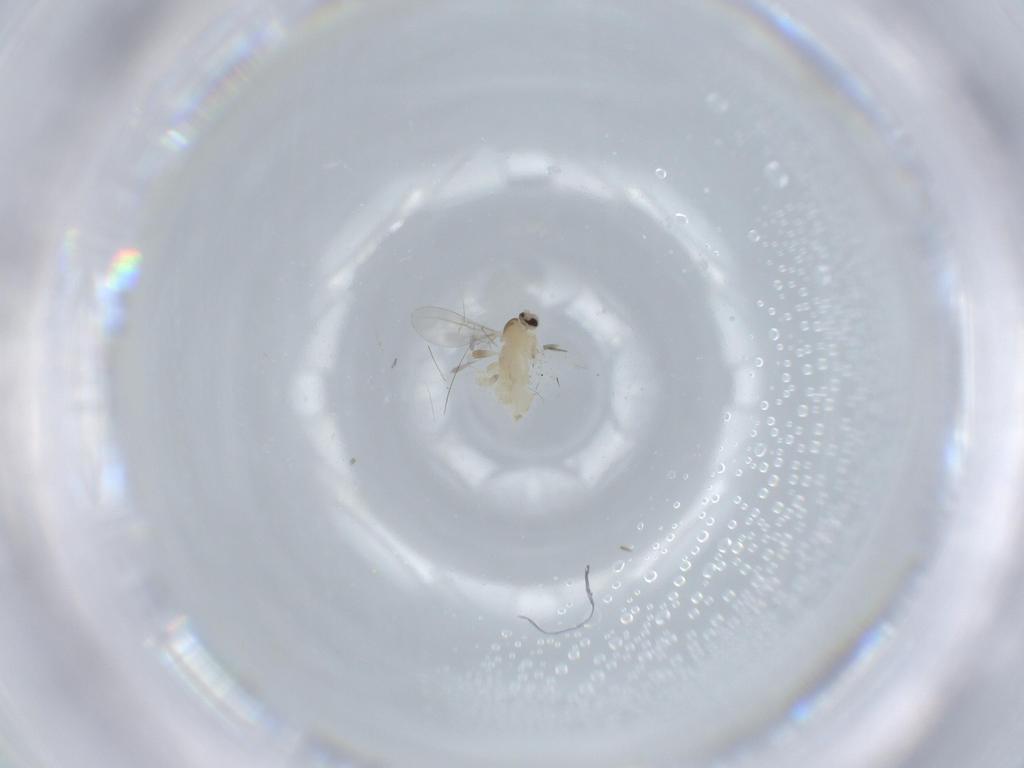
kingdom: Animalia
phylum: Arthropoda
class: Insecta
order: Diptera
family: Cecidomyiidae
